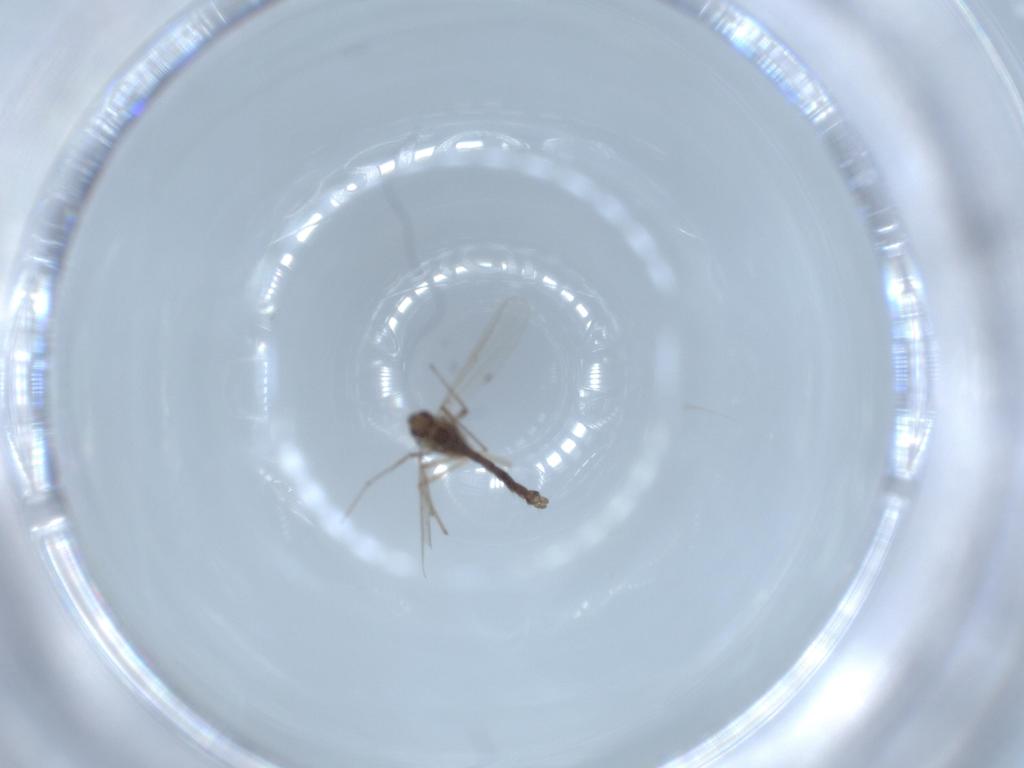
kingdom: Animalia
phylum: Arthropoda
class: Insecta
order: Diptera
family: Chironomidae
